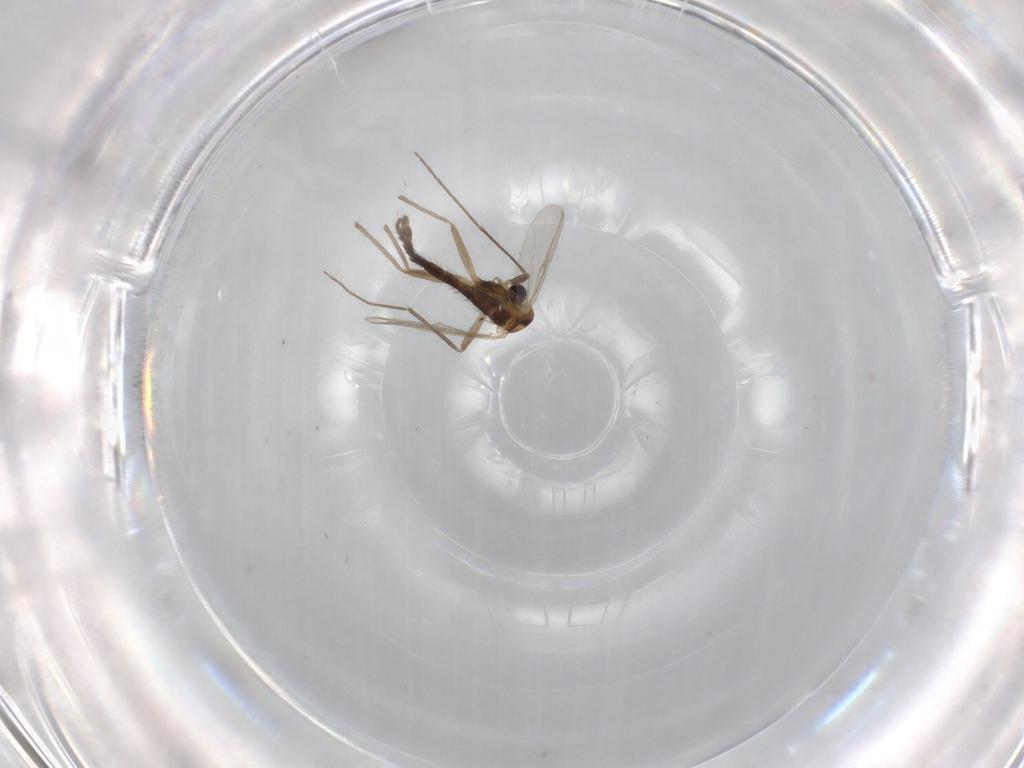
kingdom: Animalia
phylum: Arthropoda
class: Insecta
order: Diptera
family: Chironomidae
